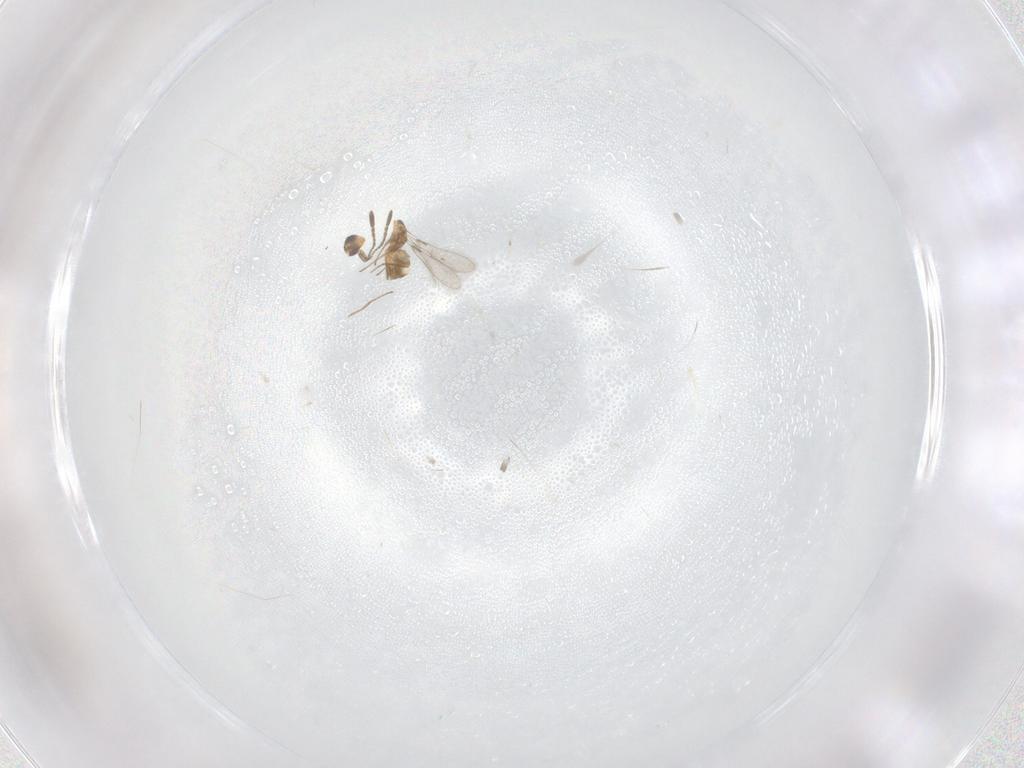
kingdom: Animalia
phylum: Arthropoda
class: Insecta
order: Hymenoptera
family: Mymaridae
